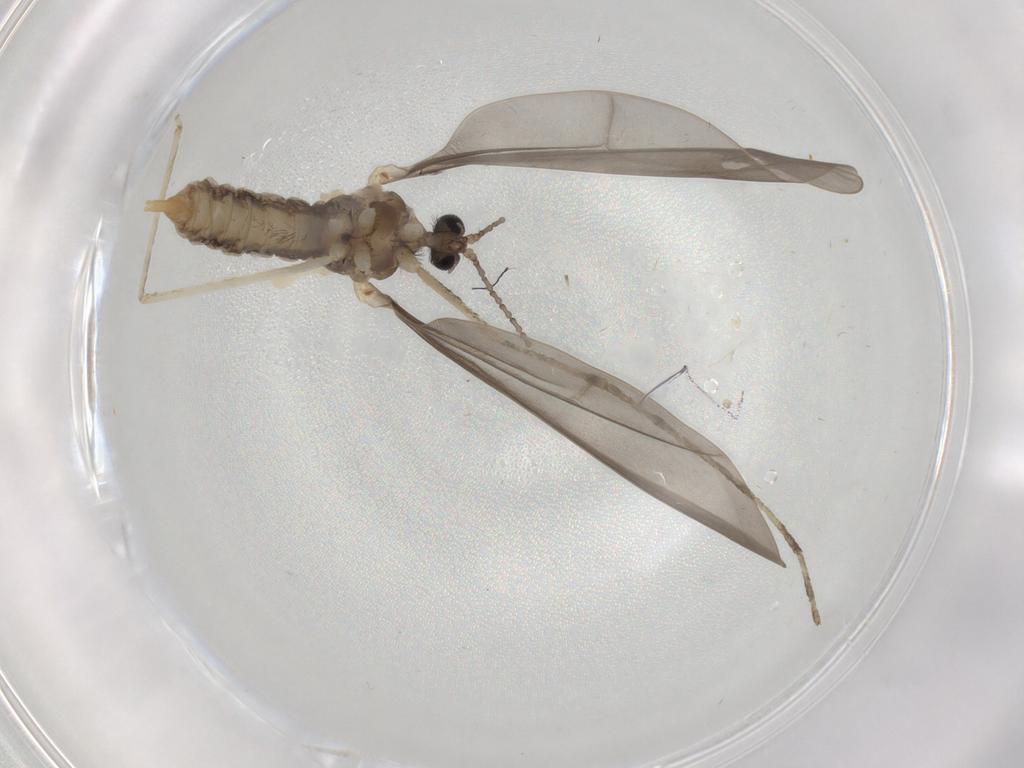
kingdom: Animalia
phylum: Arthropoda
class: Insecta
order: Diptera
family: Cecidomyiidae
